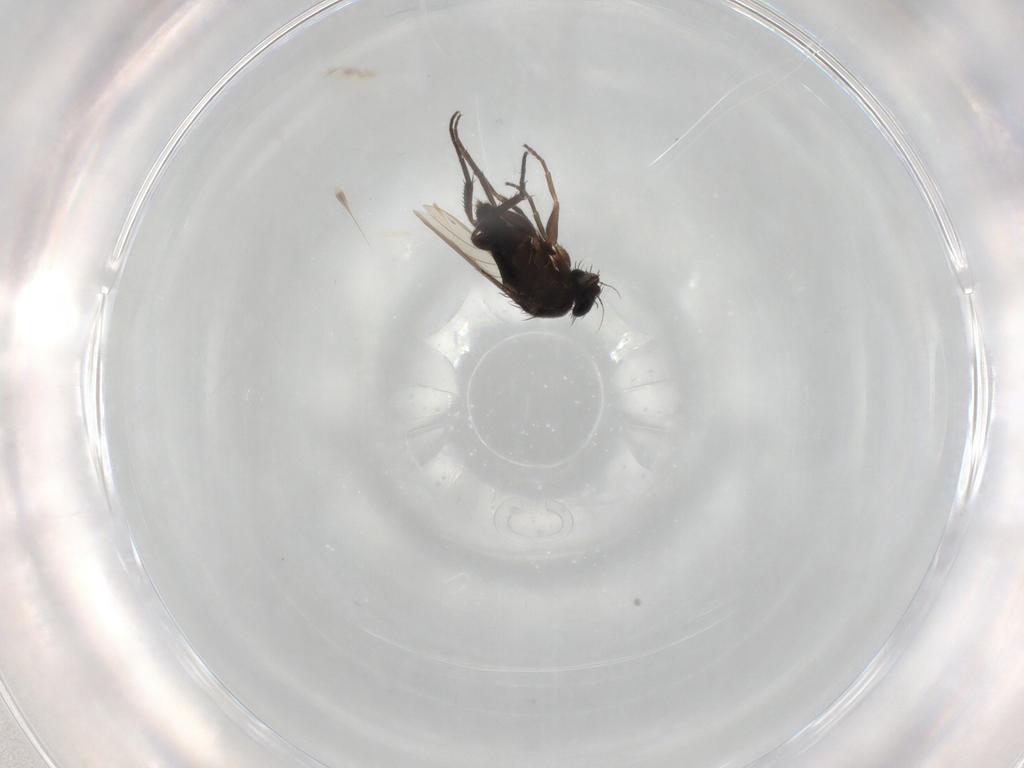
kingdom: Animalia
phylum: Arthropoda
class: Insecta
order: Diptera
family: Phoridae
